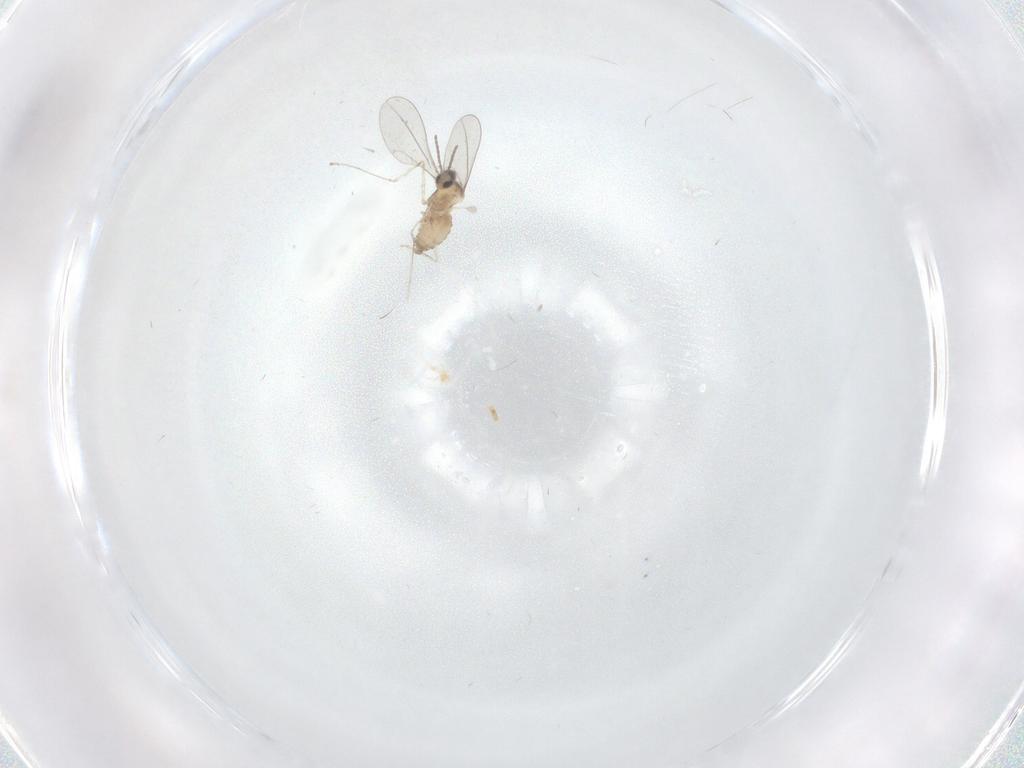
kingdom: Animalia
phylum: Arthropoda
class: Insecta
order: Diptera
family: Cecidomyiidae
